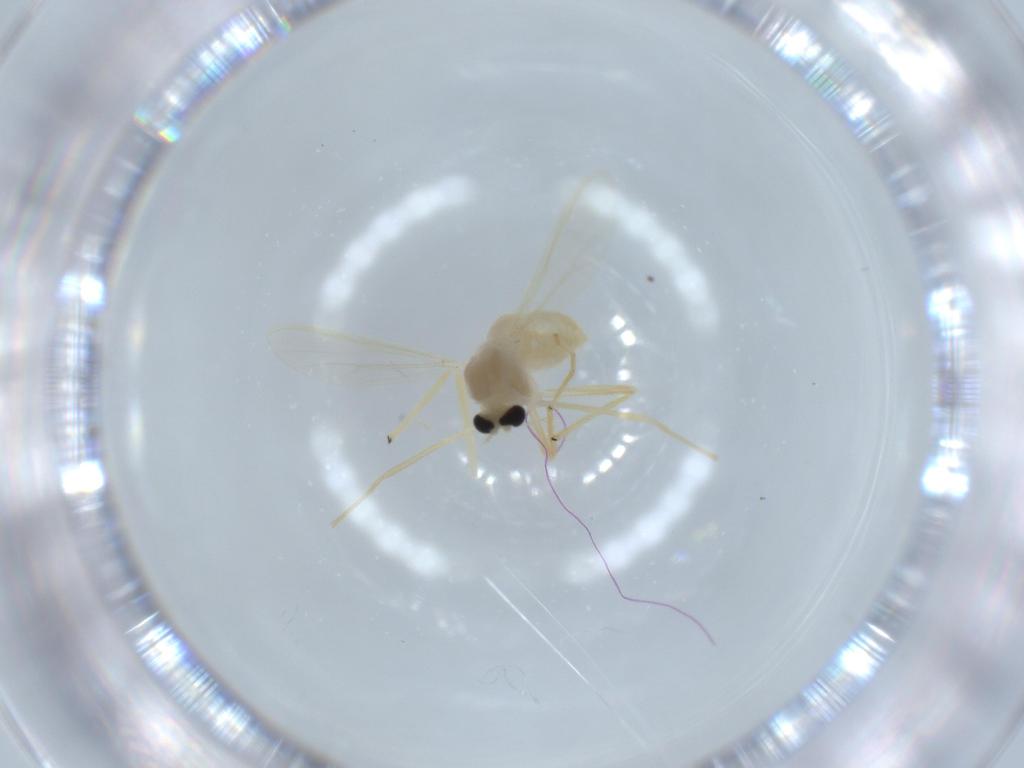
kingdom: Animalia
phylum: Arthropoda
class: Insecta
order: Diptera
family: Chironomidae
